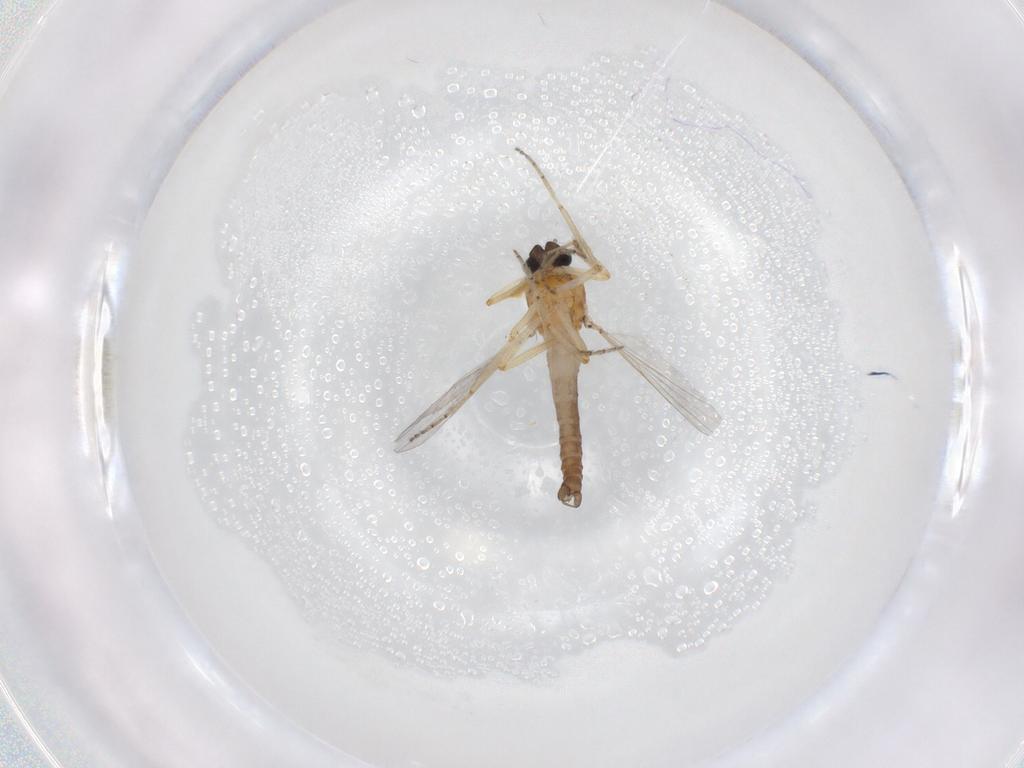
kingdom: Animalia
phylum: Arthropoda
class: Insecta
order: Diptera
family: Ceratopogonidae
